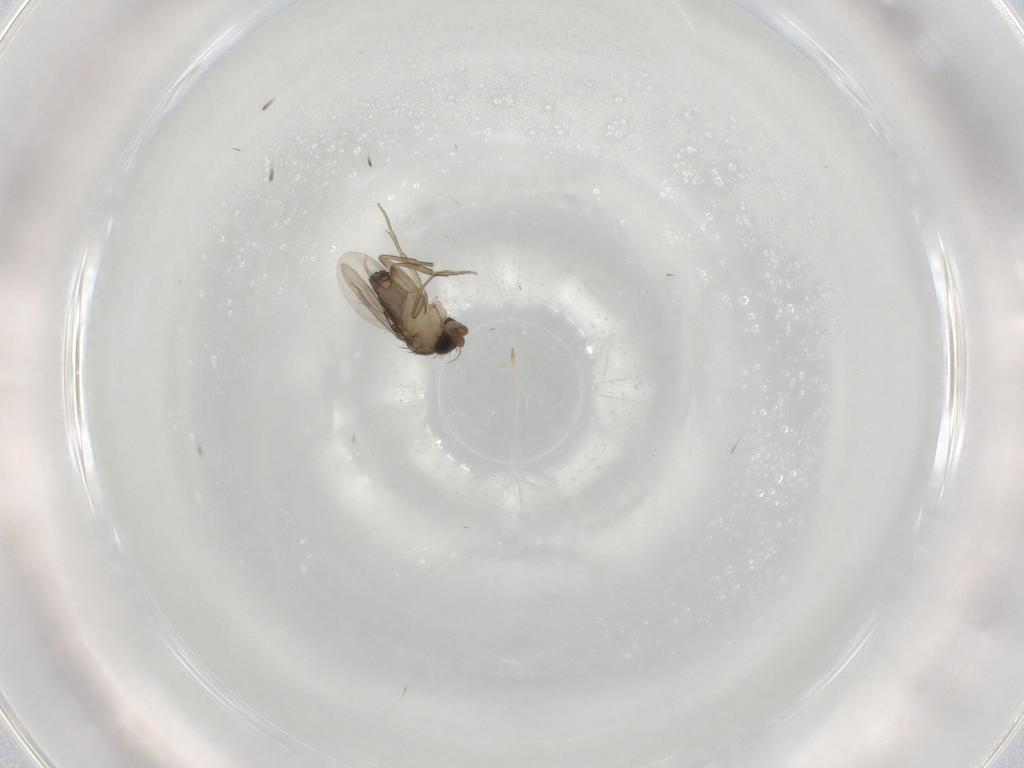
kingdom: Animalia
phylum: Arthropoda
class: Insecta
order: Diptera
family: Phoridae
